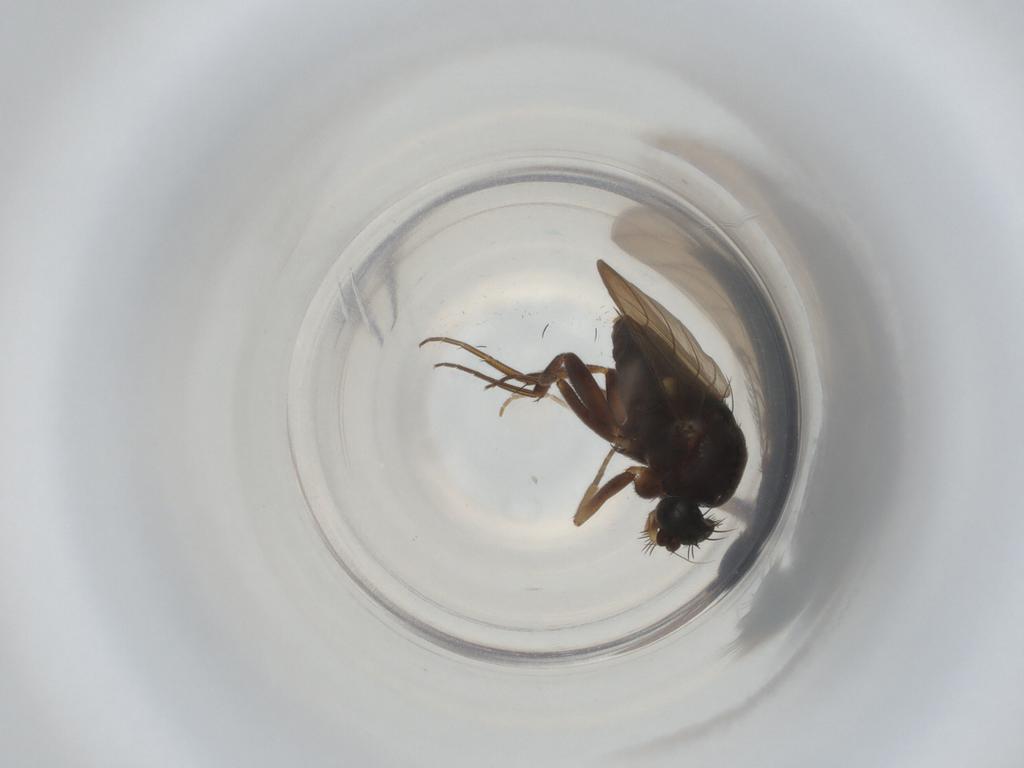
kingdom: Animalia
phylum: Arthropoda
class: Insecta
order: Diptera
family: Phoridae
